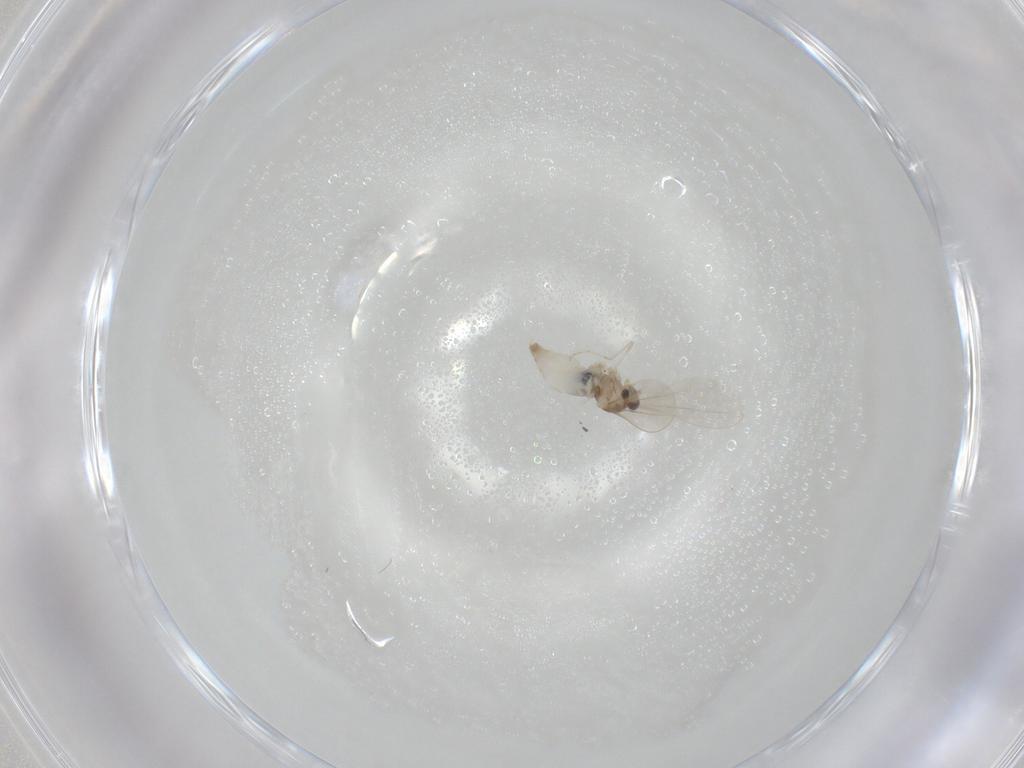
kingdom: Animalia
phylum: Arthropoda
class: Insecta
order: Diptera
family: Cecidomyiidae
